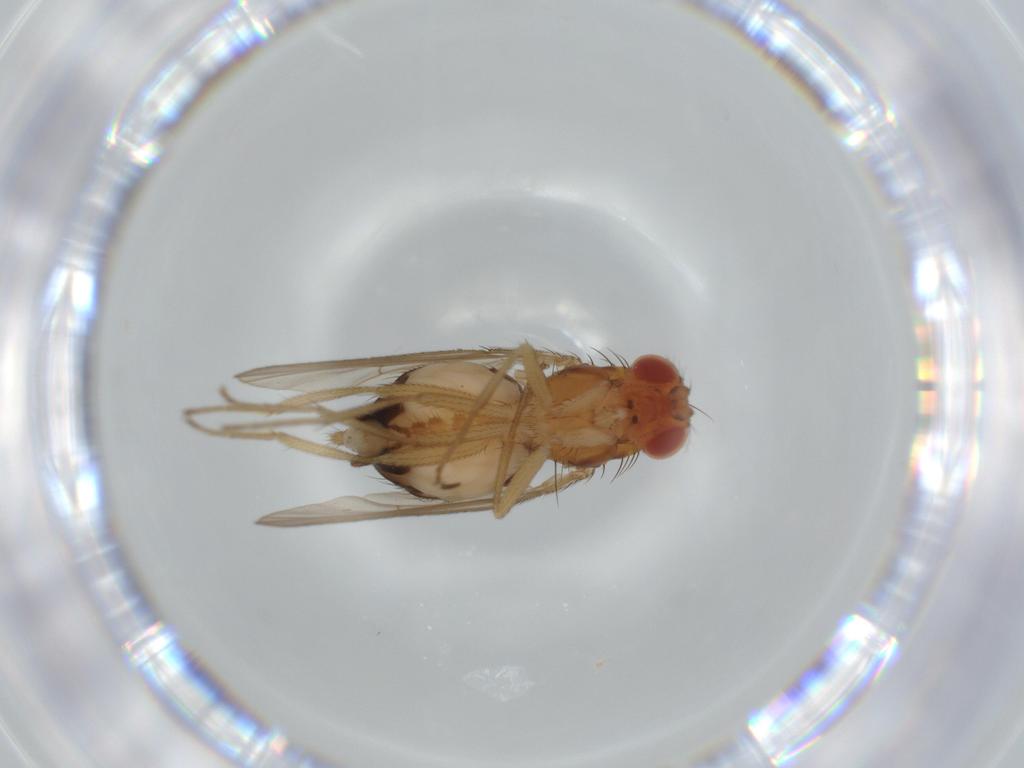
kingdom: Animalia
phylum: Arthropoda
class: Insecta
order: Diptera
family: Drosophilidae
